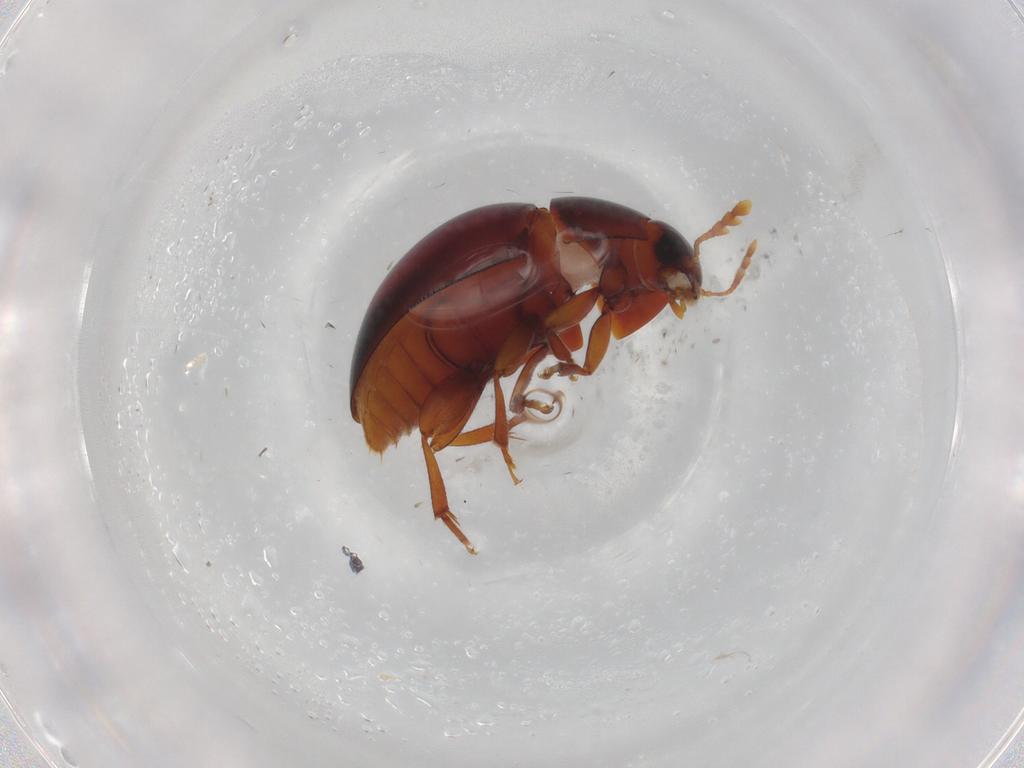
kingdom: Animalia
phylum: Arthropoda
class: Insecta
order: Coleoptera
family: Phalacridae
